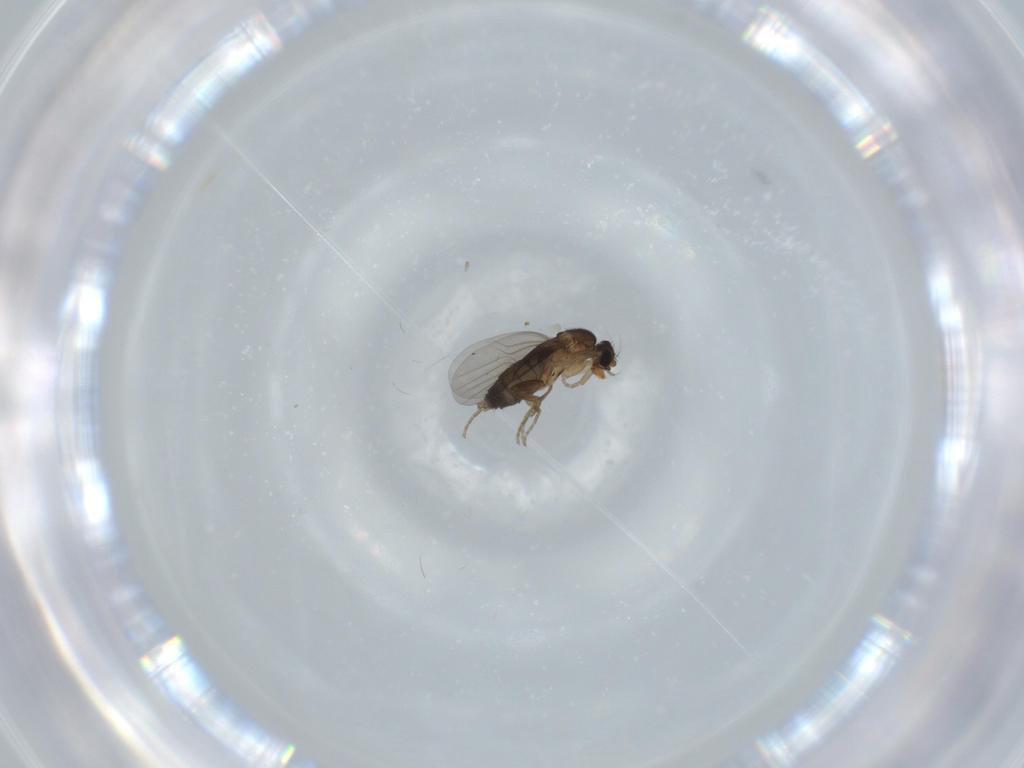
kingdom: Animalia
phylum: Arthropoda
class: Insecta
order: Diptera
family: Phoridae
